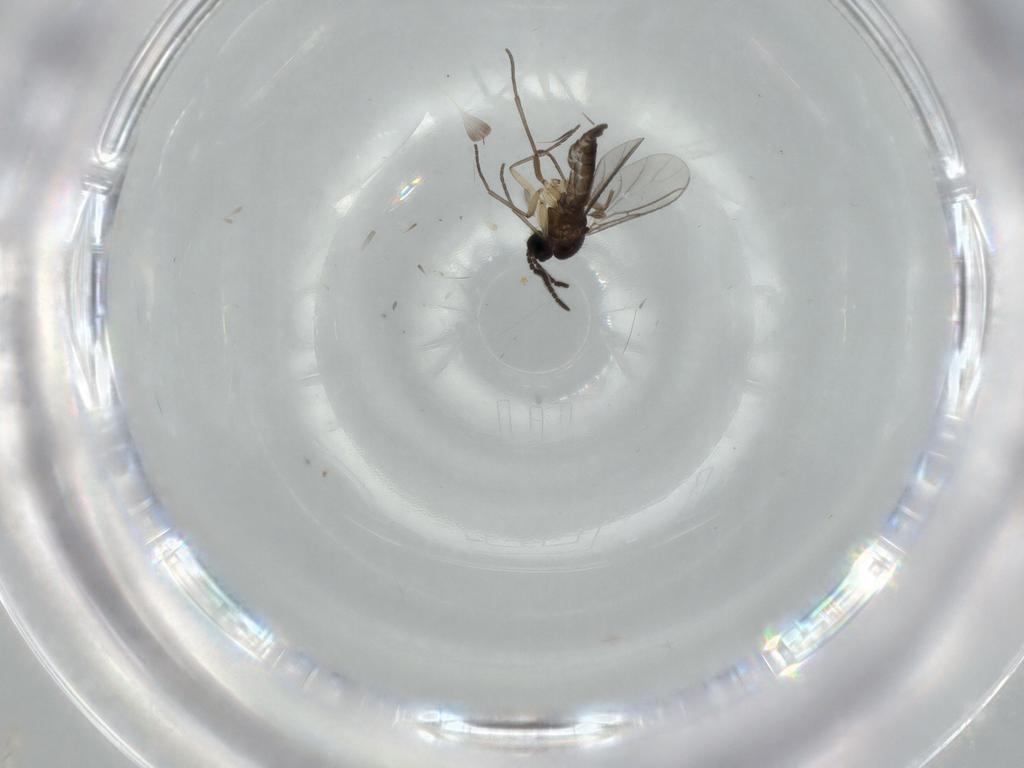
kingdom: Animalia
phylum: Arthropoda
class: Insecta
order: Diptera
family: Sciaridae
